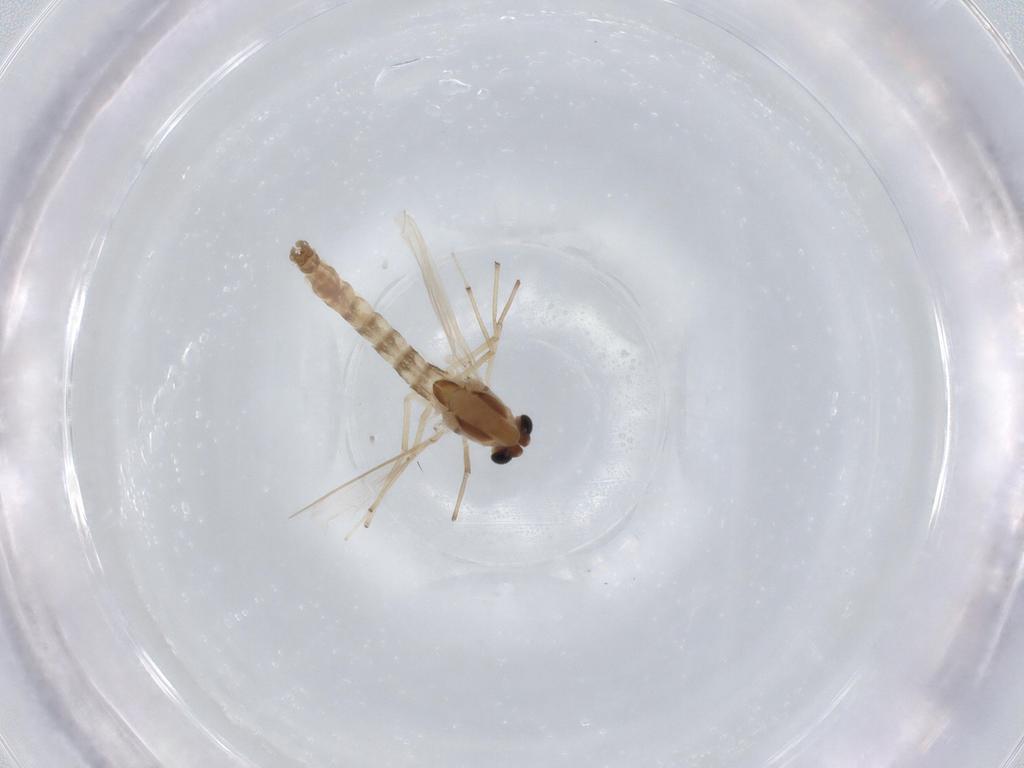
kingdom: Animalia
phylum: Arthropoda
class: Insecta
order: Diptera
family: Chironomidae
